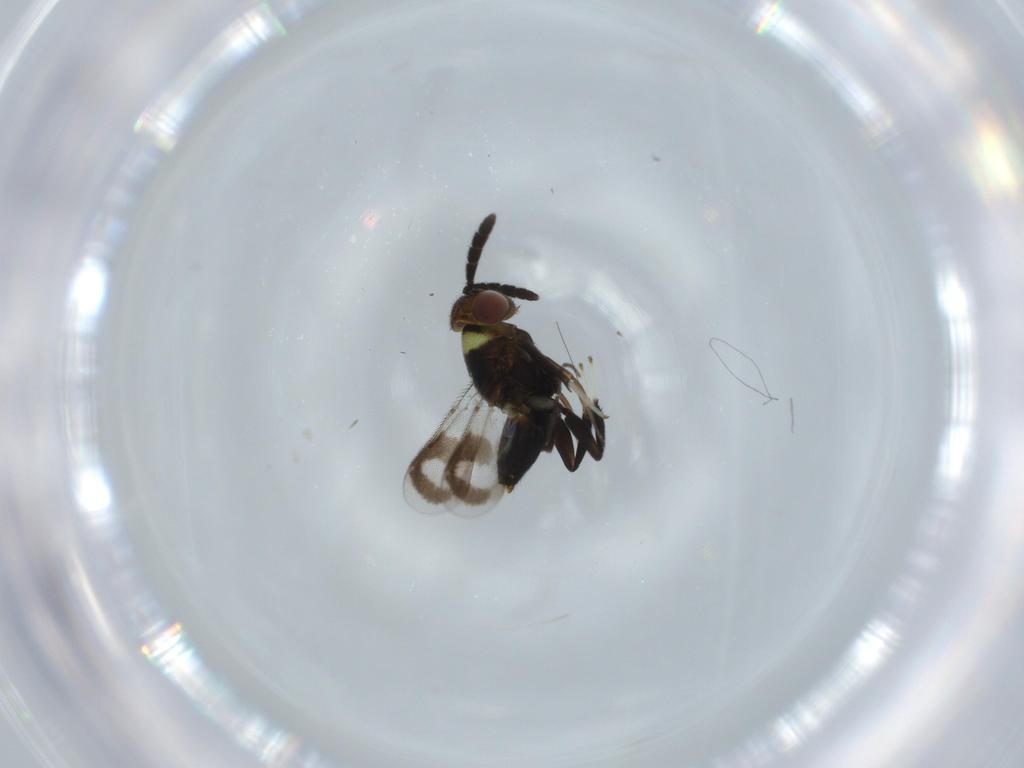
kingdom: Animalia
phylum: Arthropoda
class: Insecta
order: Hymenoptera
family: Aphelinidae
